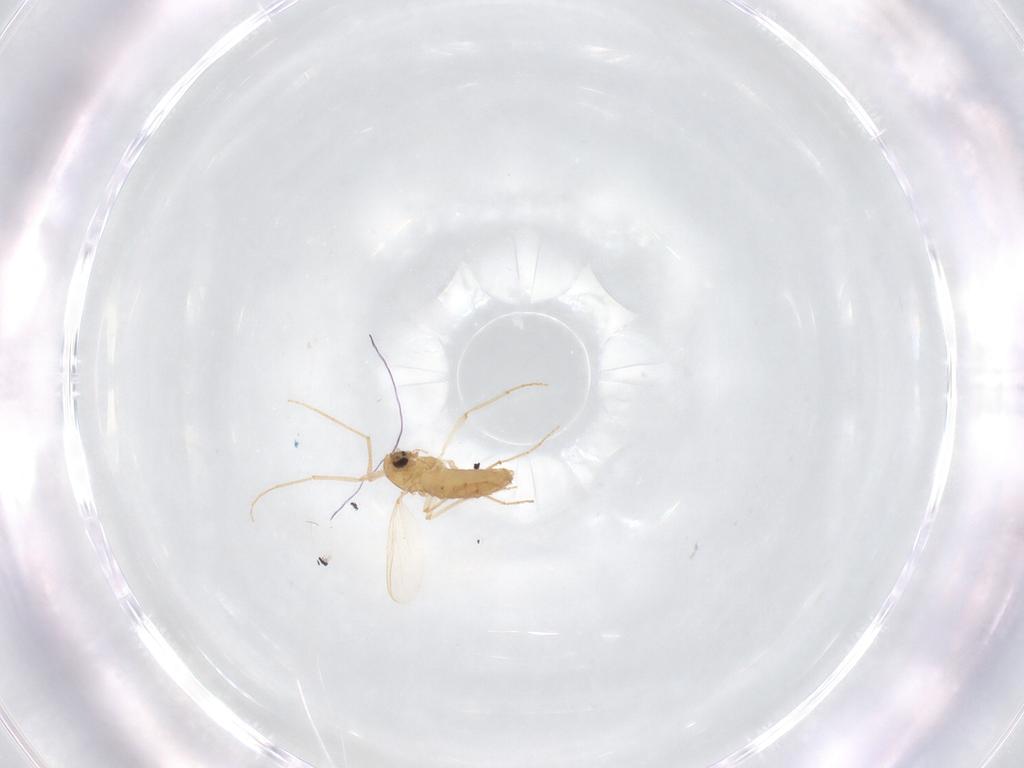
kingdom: Animalia
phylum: Arthropoda
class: Insecta
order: Diptera
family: Chironomidae
